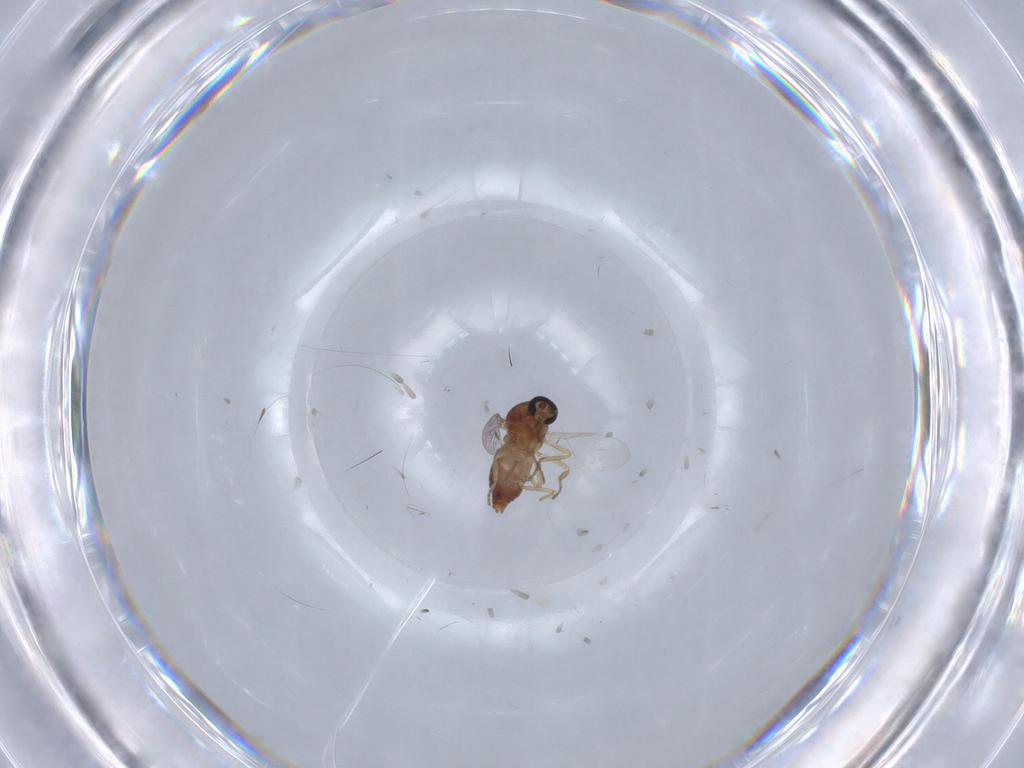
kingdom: Animalia
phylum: Arthropoda
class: Insecta
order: Diptera
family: Ceratopogonidae
